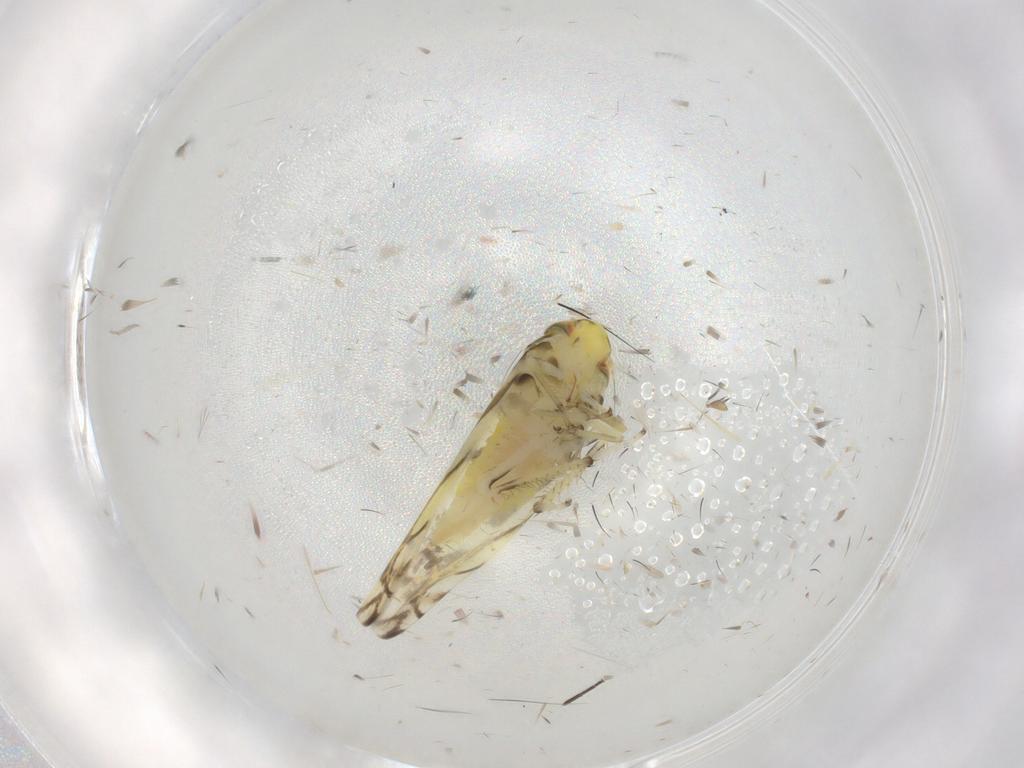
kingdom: Animalia
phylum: Arthropoda
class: Insecta
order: Hemiptera
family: Cicadellidae
